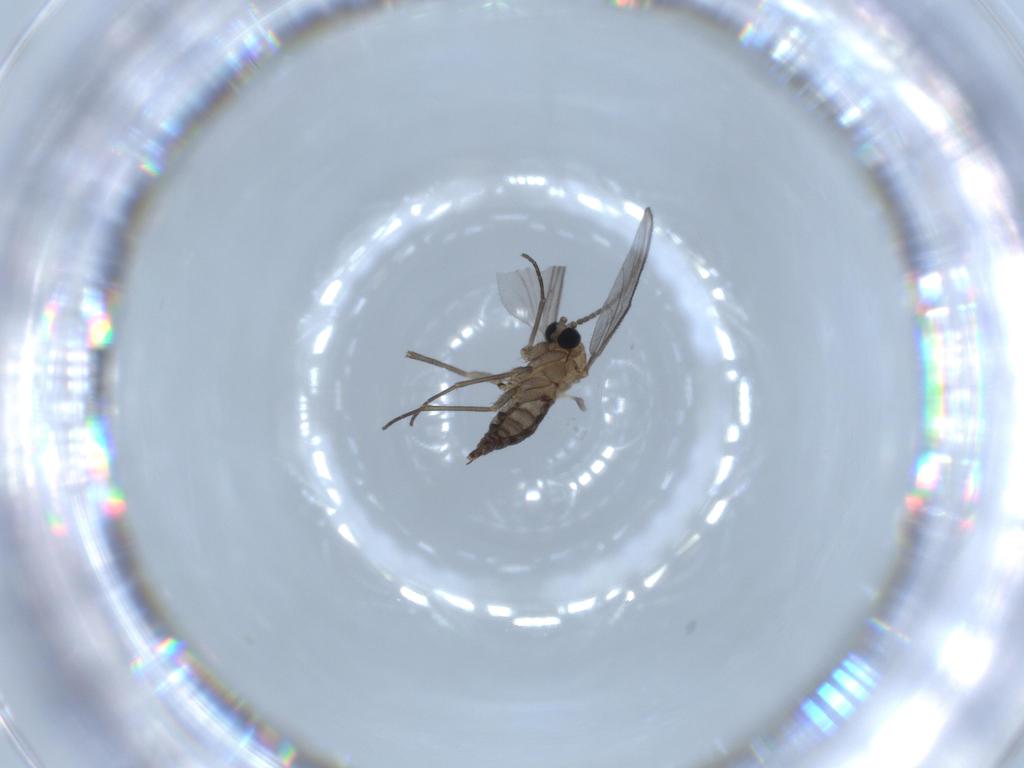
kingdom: Animalia
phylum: Arthropoda
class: Insecta
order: Diptera
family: Sciaridae
